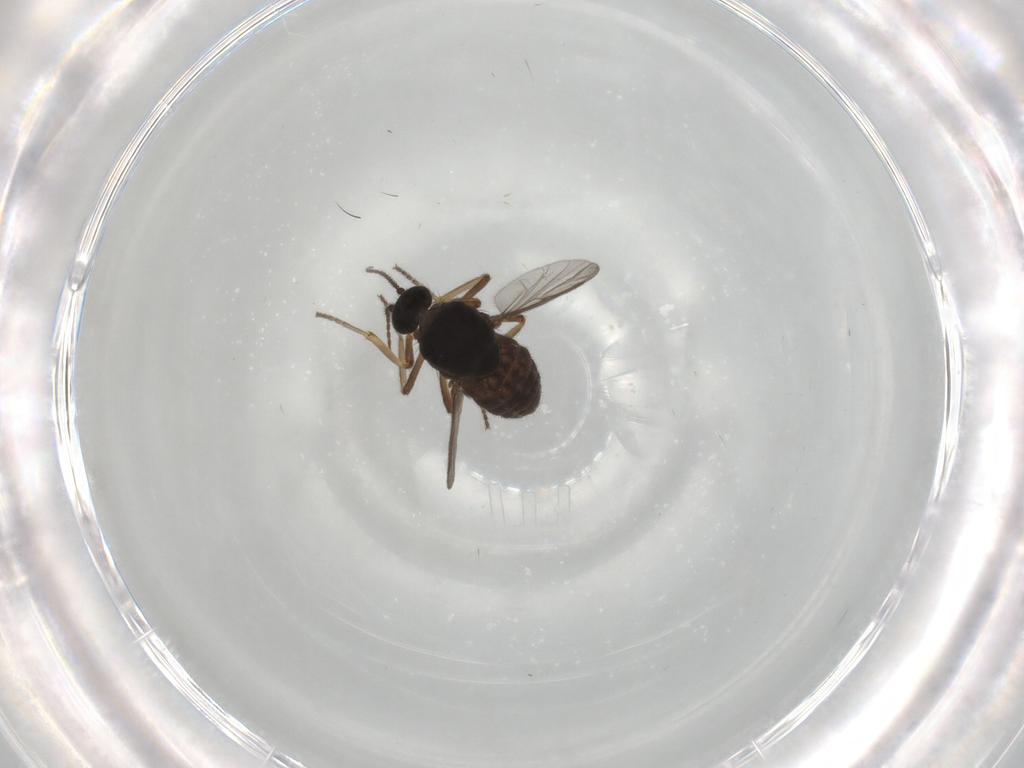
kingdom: Animalia
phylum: Arthropoda
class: Insecta
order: Diptera
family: Ceratopogonidae
